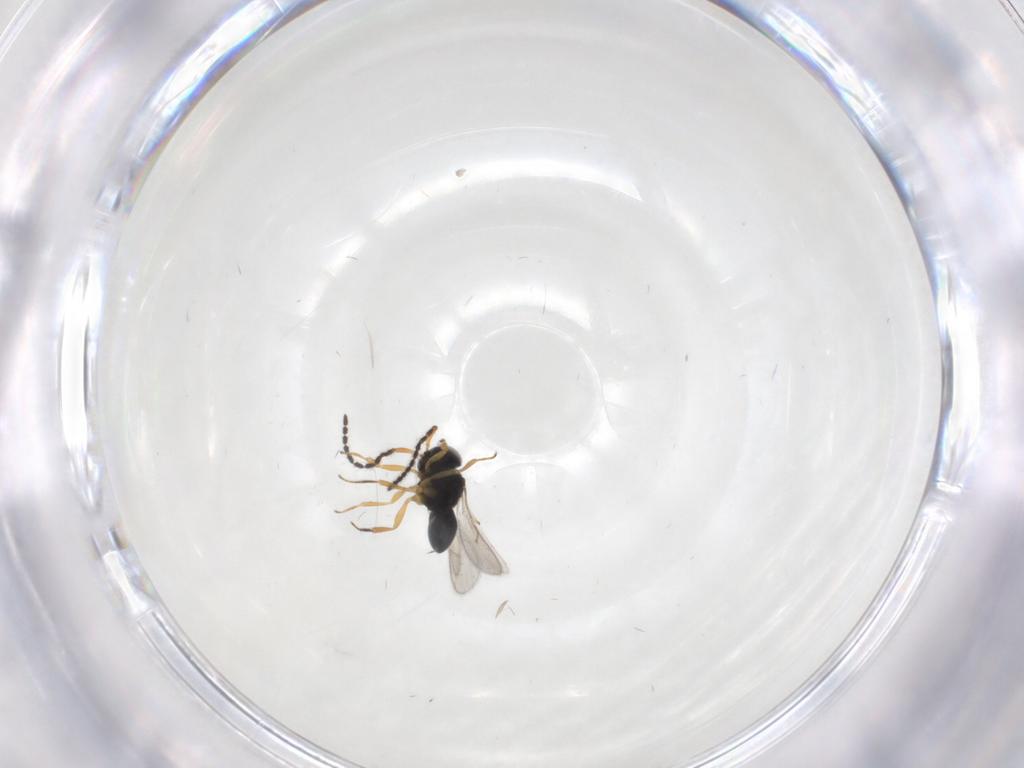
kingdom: Animalia
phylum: Arthropoda
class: Insecta
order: Hymenoptera
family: Scelionidae
